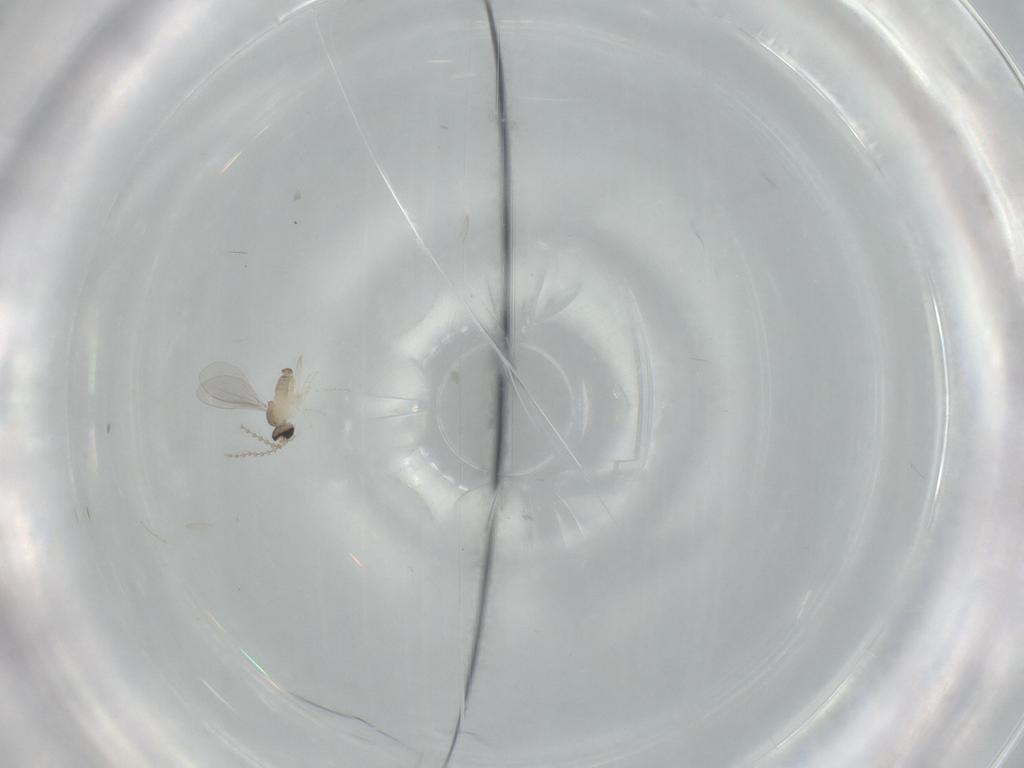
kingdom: Animalia
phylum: Arthropoda
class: Insecta
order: Diptera
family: Cecidomyiidae
